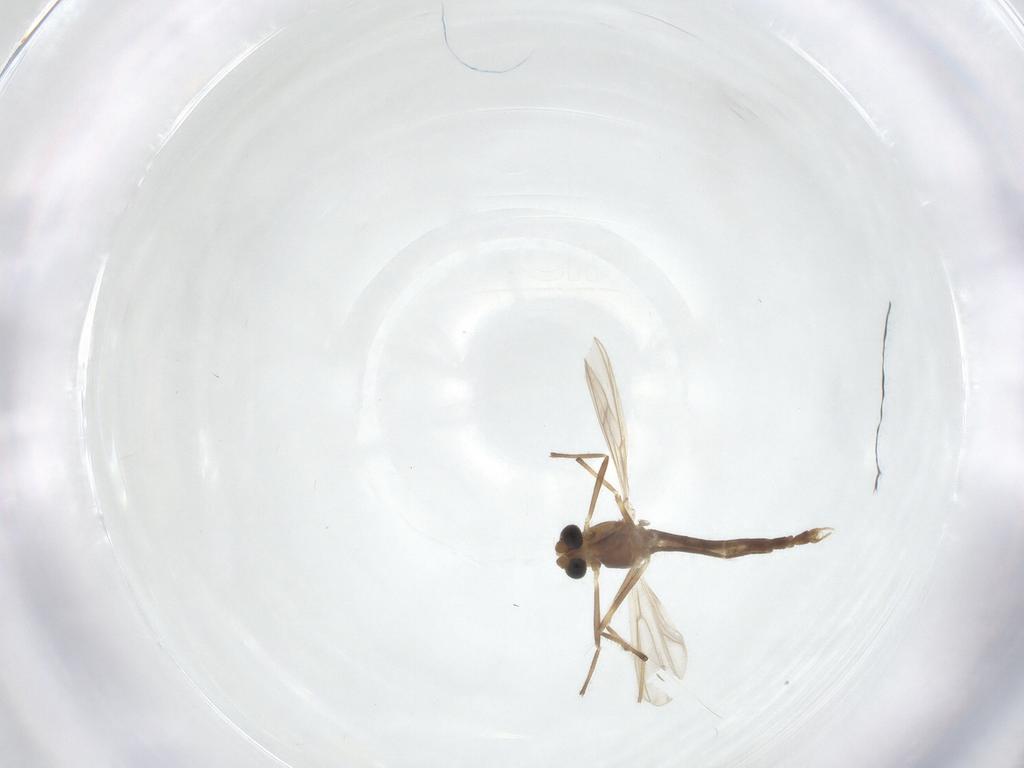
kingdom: Animalia
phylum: Arthropoda
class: Insecta
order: Diptera
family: Chironomidae
